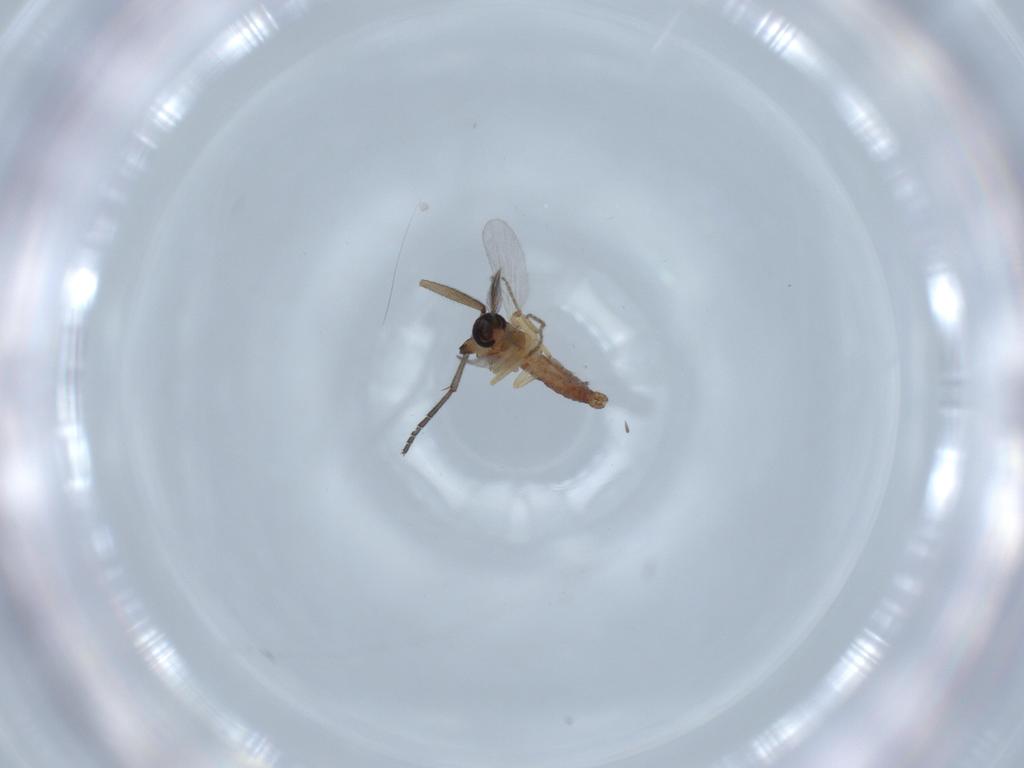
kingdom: Animalia
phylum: Arthropoda
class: Insecta
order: Diptera
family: Ceratopogonidae
